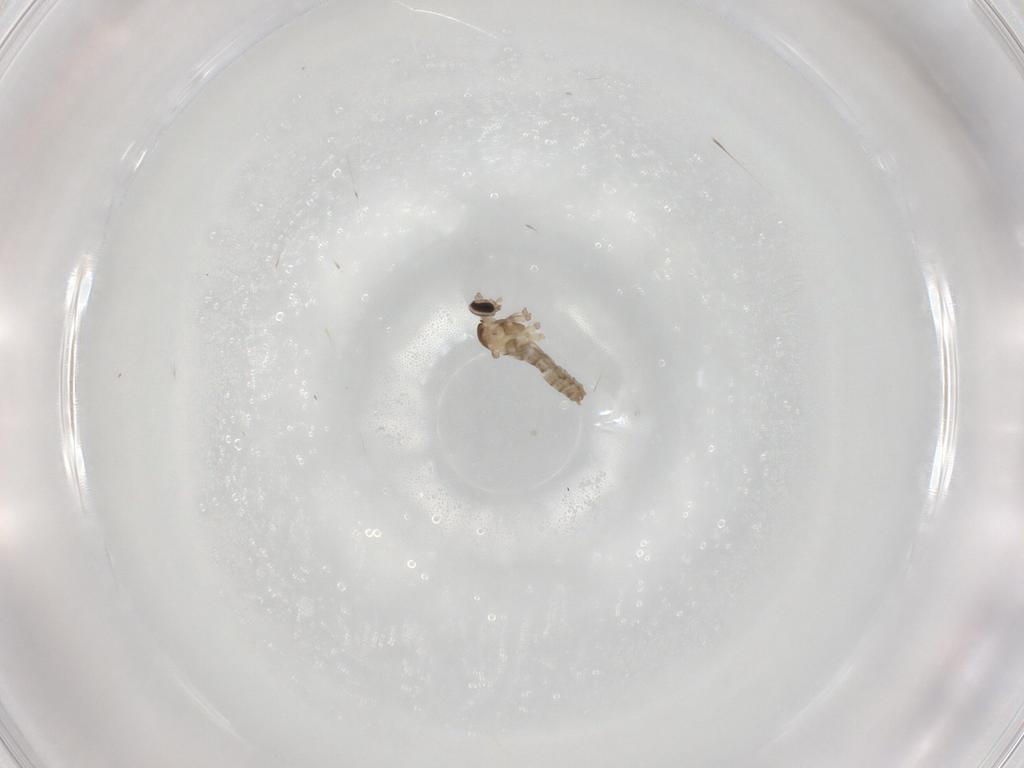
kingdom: Animalia
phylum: Arthropoda
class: Insecta
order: Diptera
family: Cecidomyiidae
